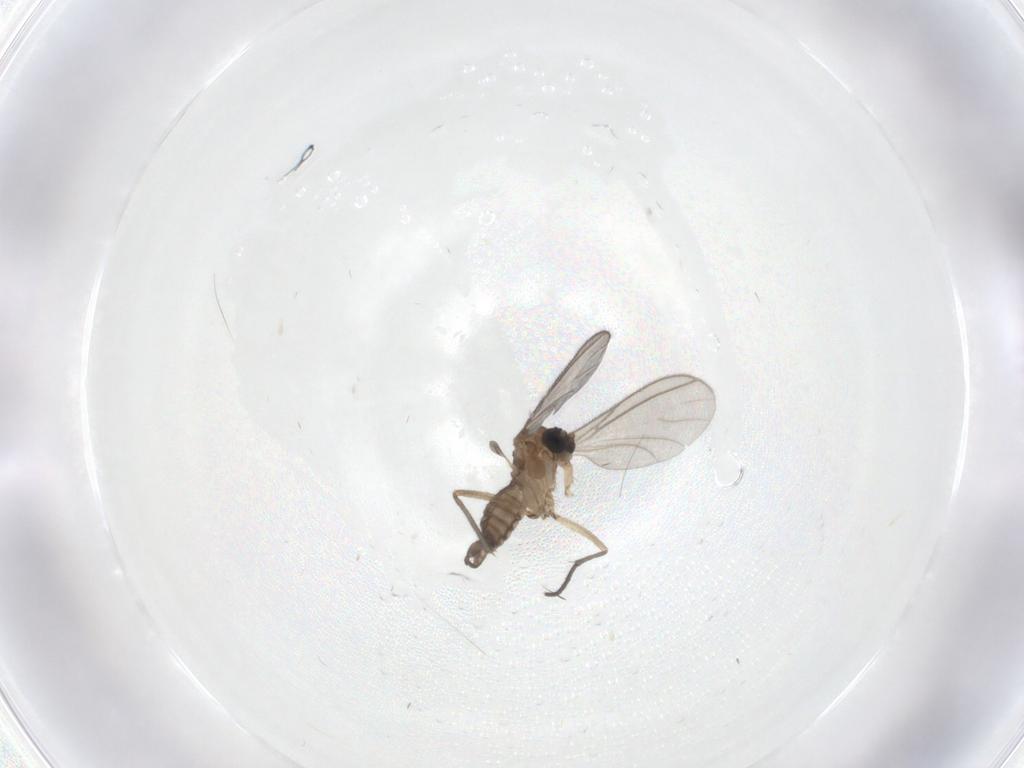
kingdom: Animalia
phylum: Arthropoda
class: Insecta
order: Diptera
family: Sciaridae
